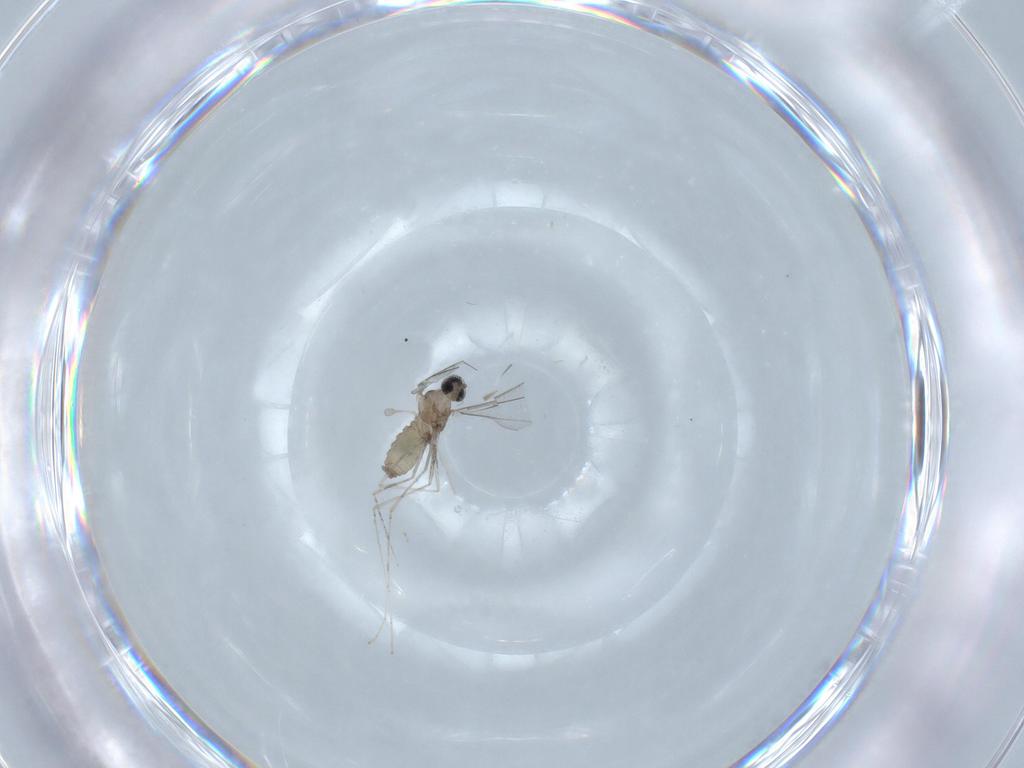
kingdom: Animalia
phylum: Arthropoda
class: Insecta
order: Diptera
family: Cecidomyiidae
